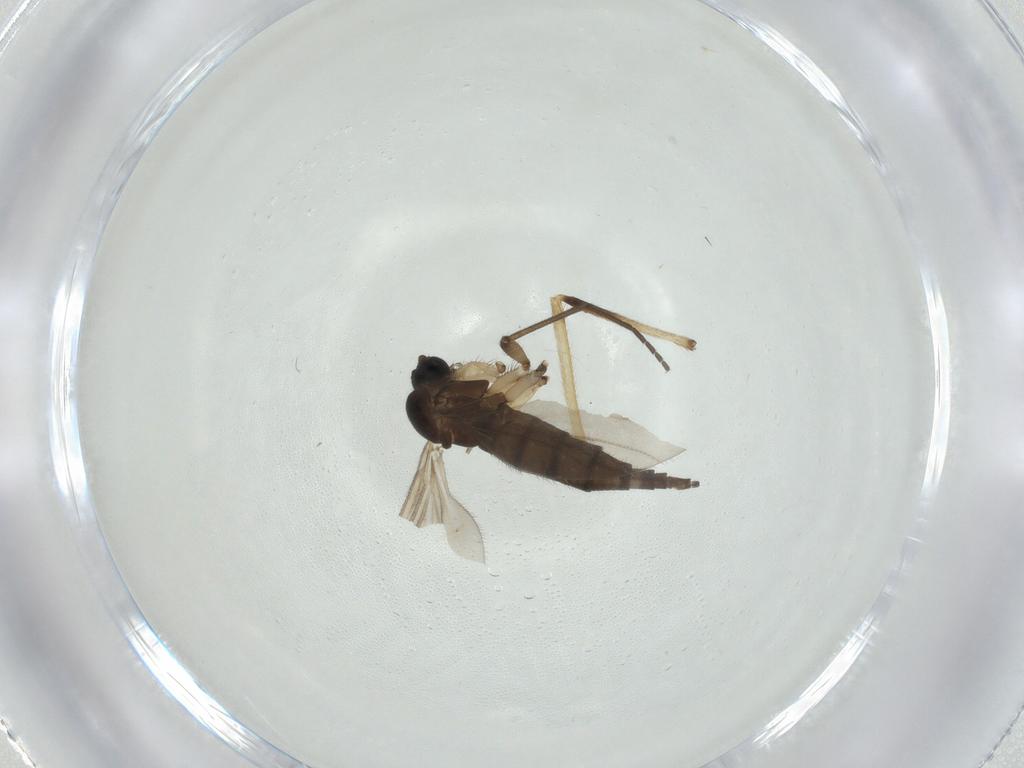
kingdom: Animalia
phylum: Arthropoda
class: Insecta
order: Diptera
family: Sciaridae
